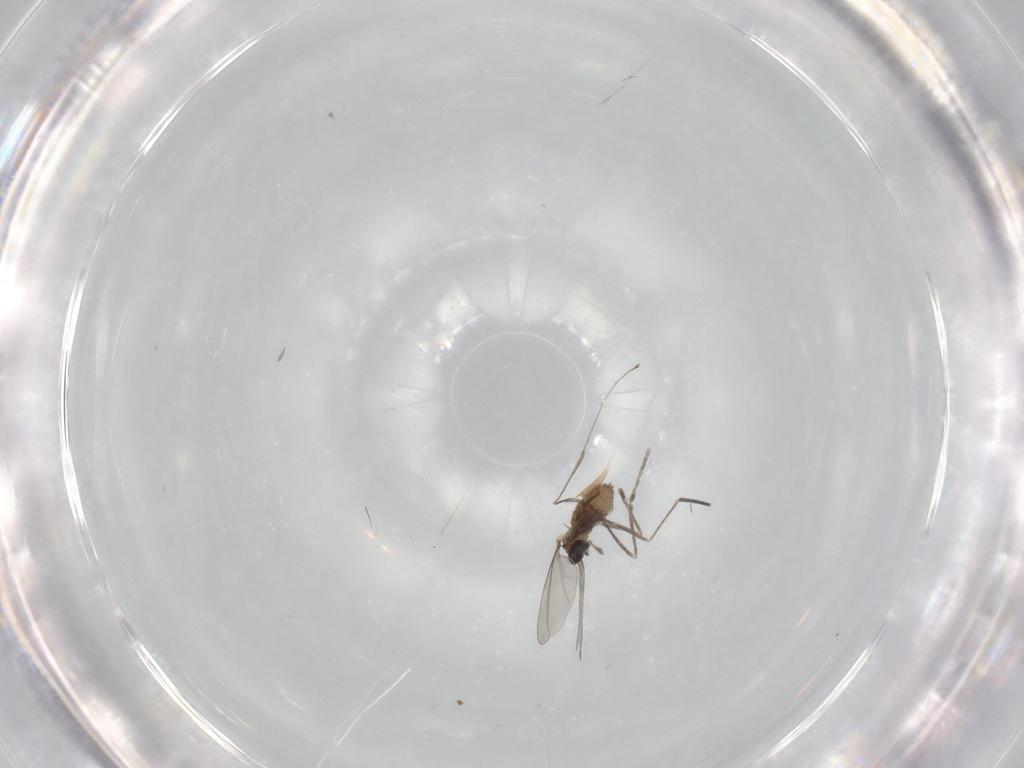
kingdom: Animalia
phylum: Arthropoda
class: Insecta
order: Diptera
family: Cecidomyiidae
